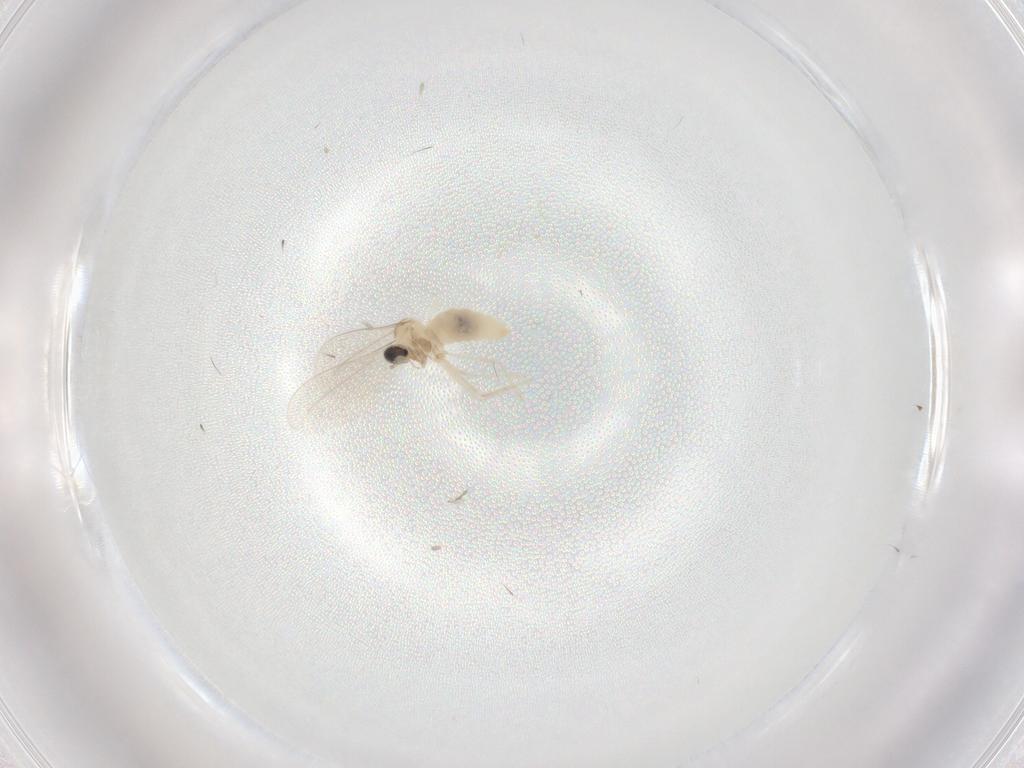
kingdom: Animalia
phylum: Arthropoda
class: Insecta
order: Diptera
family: Cecidomyiidae
